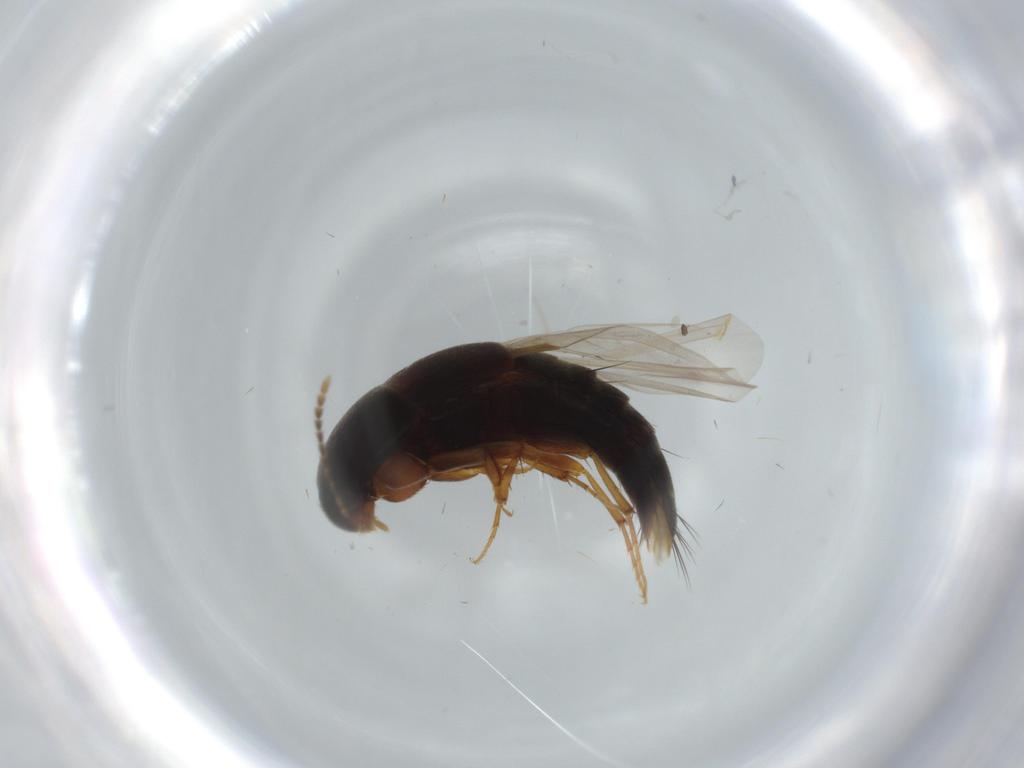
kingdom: Animalia
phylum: Arthropoda
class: Insecta
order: Coleoptera
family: Staphylinidae
